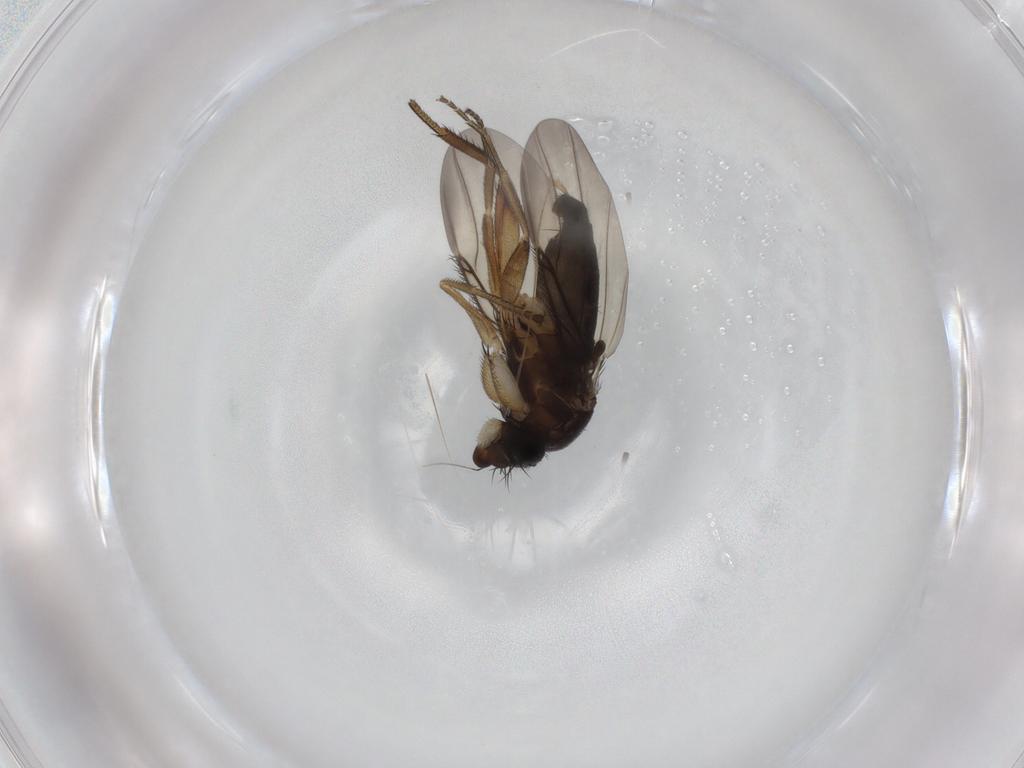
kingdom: Animalia
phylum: Arthropoda
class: Insecta
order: Diptera
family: Phoridae
